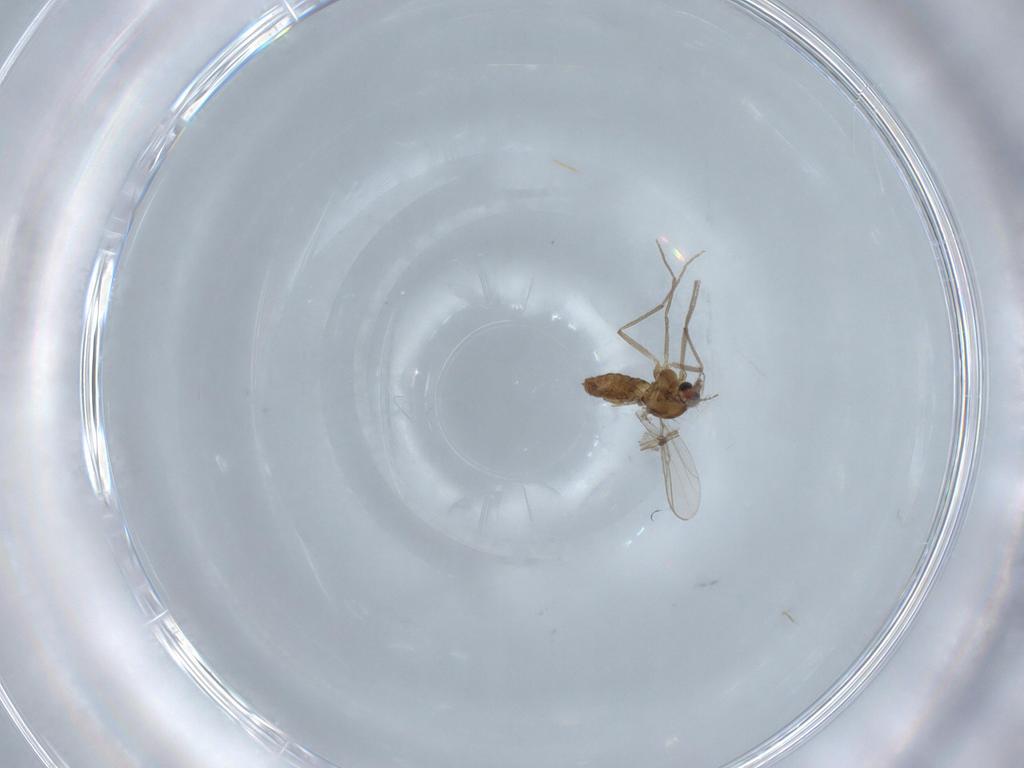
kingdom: Animalia
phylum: Arthropoda
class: Insecta
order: Diptera
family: Chironomidae
